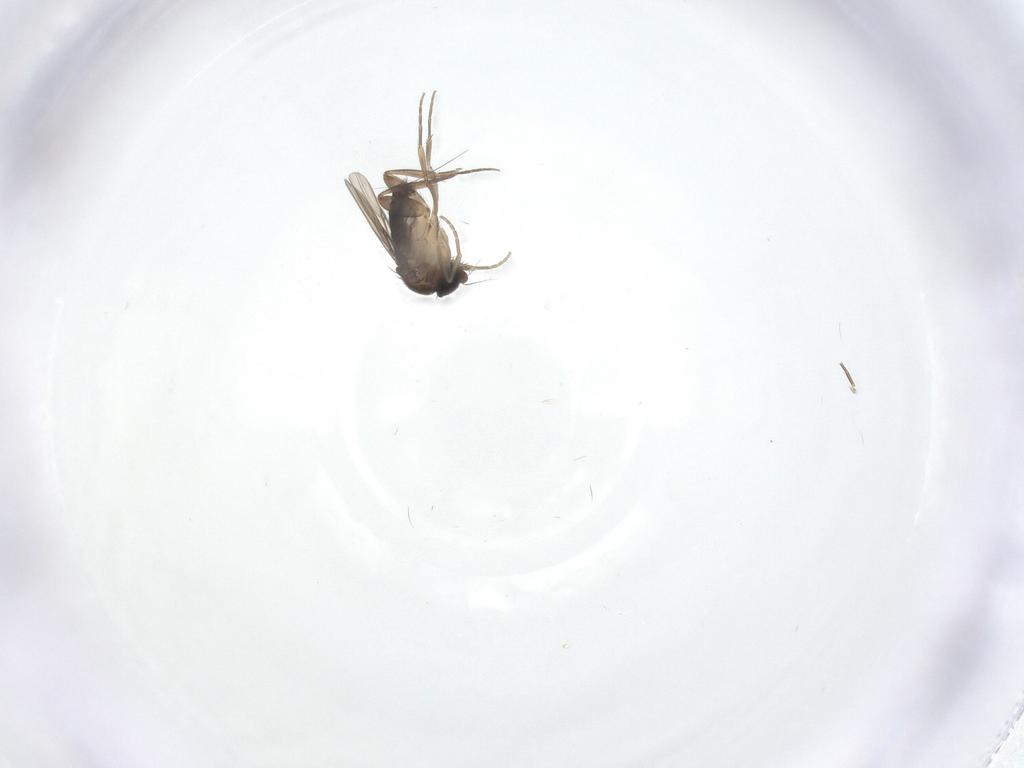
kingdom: Animalia
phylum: Arthropoda
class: Insecta
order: Diptera
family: Phoridae
